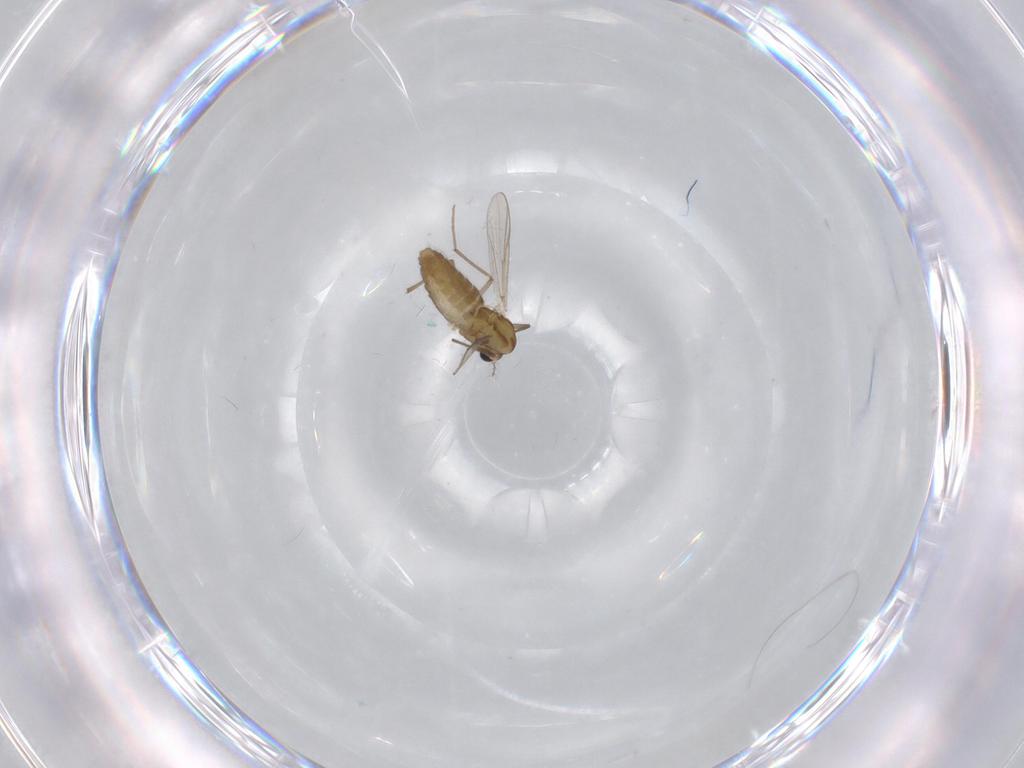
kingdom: Animalia
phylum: Arthropoda
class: Insecta
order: Diptera
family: Chironomidae
